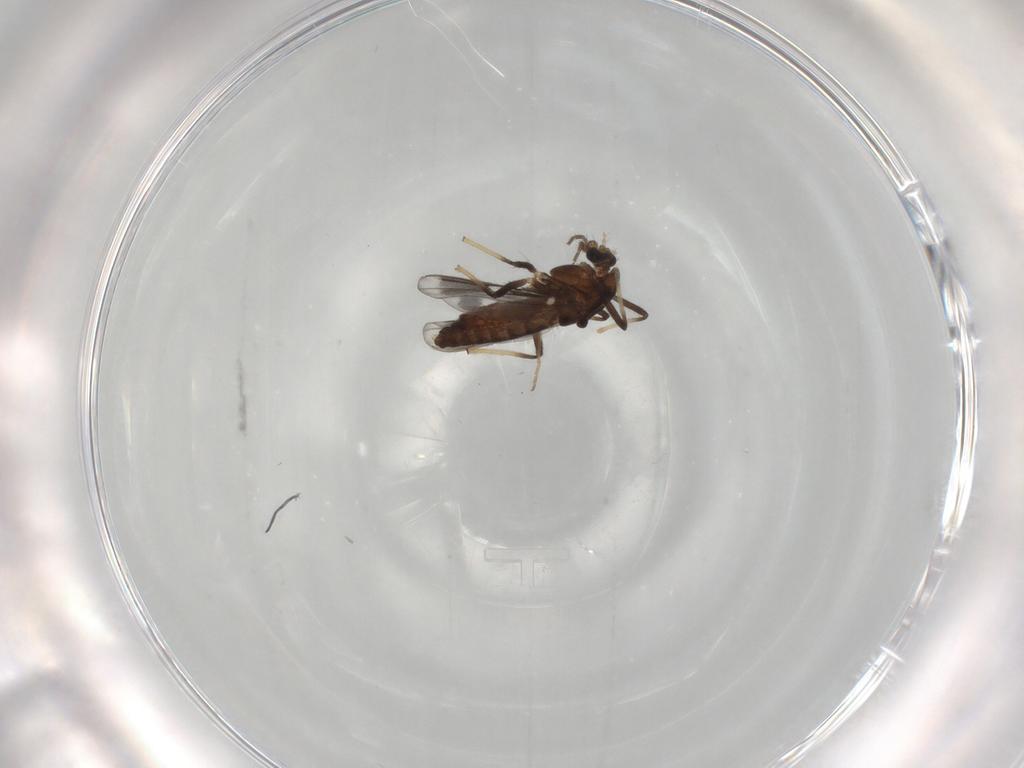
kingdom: Animalia
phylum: Arthropoda
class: Insecta
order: Diptera
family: Chironomidae
